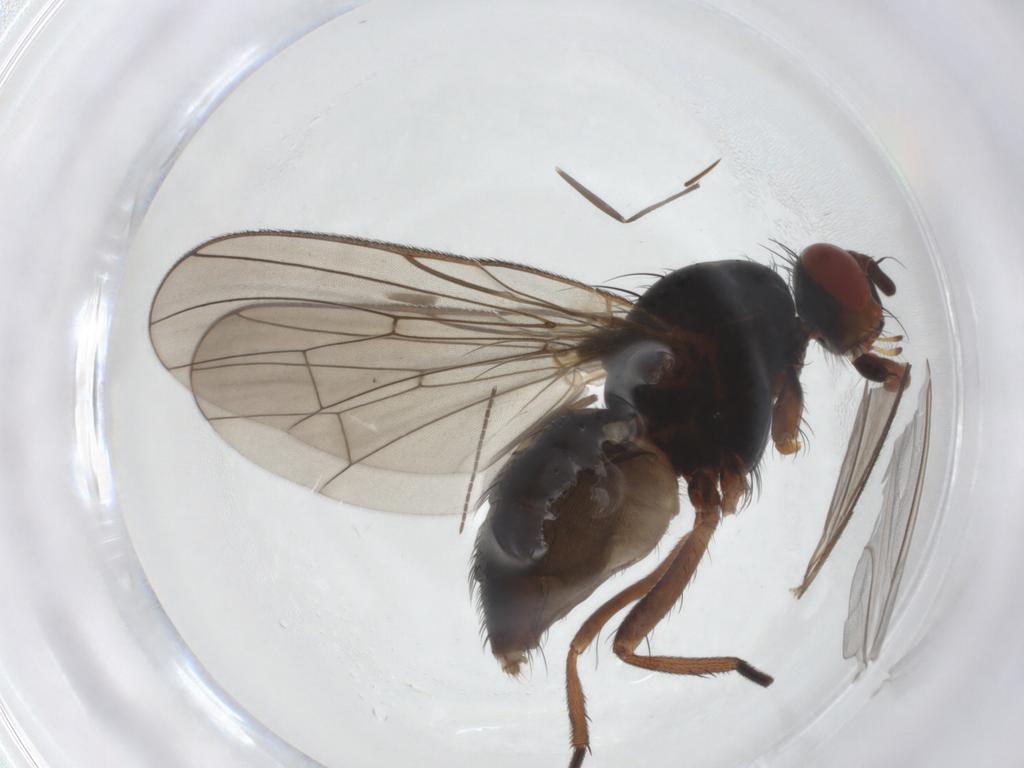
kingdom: Animalia
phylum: Arthropoda
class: Insecta
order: Diptera
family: Anthomyiidae
